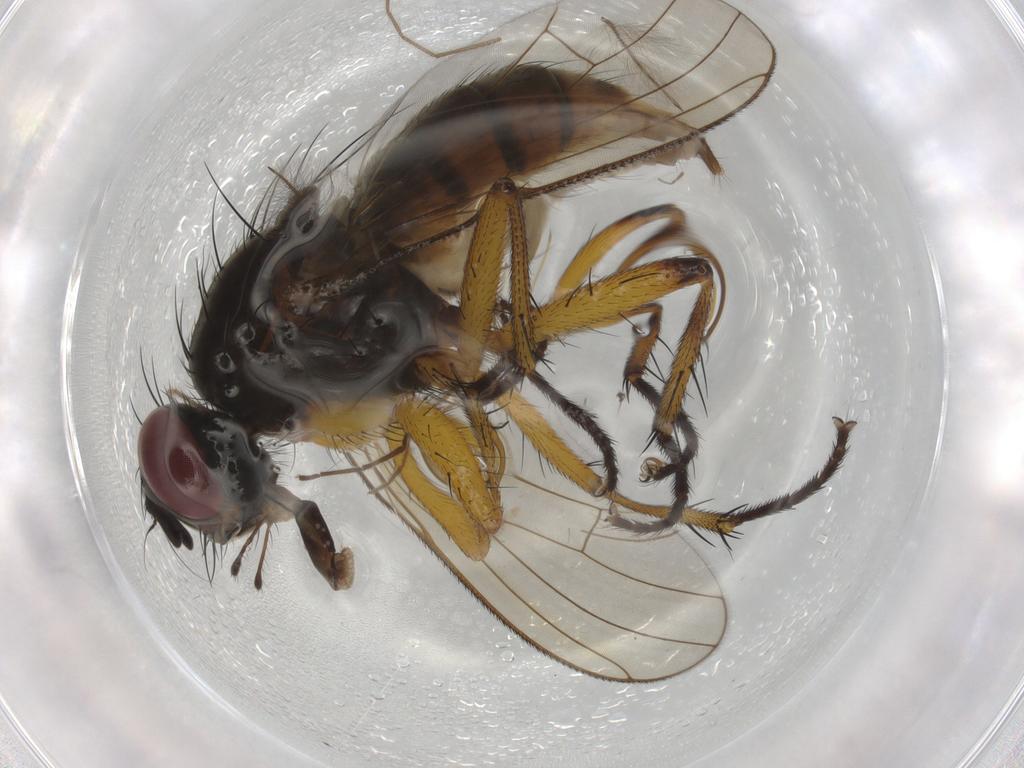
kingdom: Animalia
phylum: Arthropoda
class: Insecta
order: Diptera
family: Muscidae
